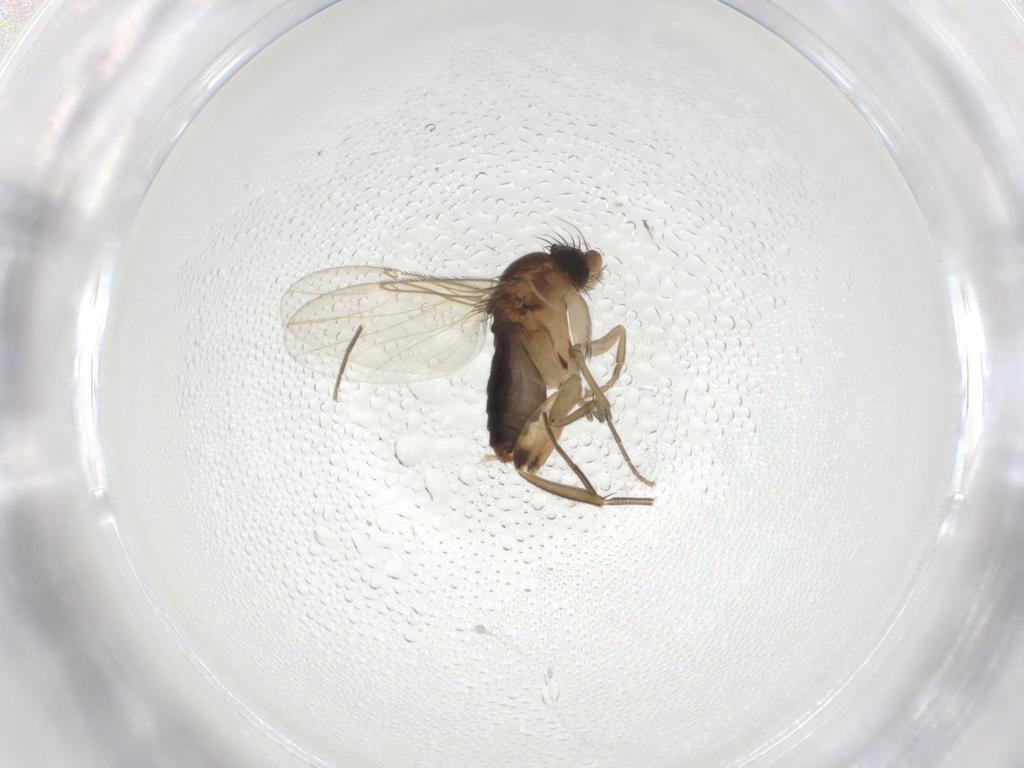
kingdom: Animalia
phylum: Arthropoda
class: Insecta
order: Diptera
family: Phoridae
